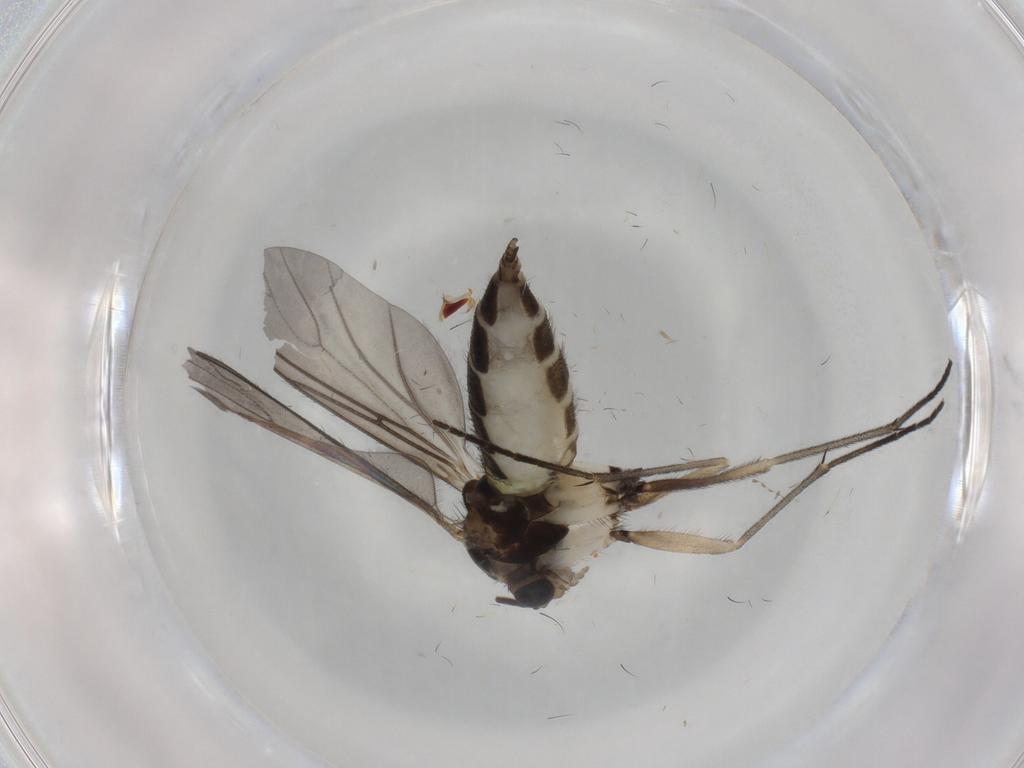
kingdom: Animalia
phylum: Arthropoda
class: Insecta
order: Diptera
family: Sciaridae
